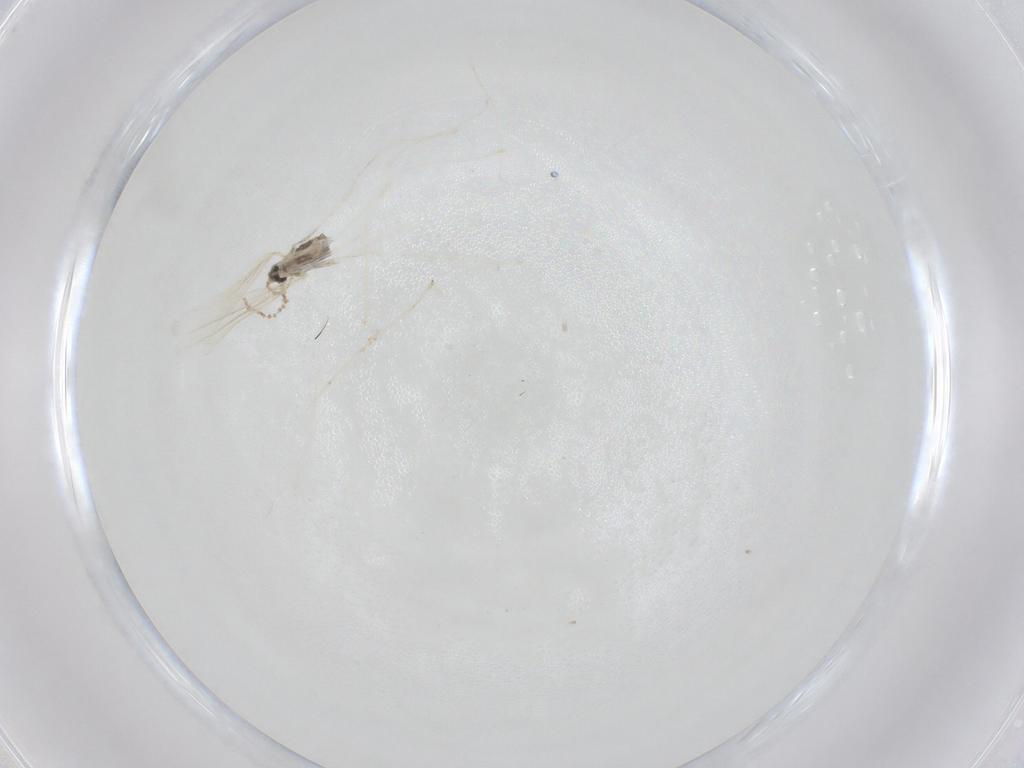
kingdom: Animalia
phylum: Arthropoda
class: Insecta
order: Diptera
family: Cecidomyiidae
